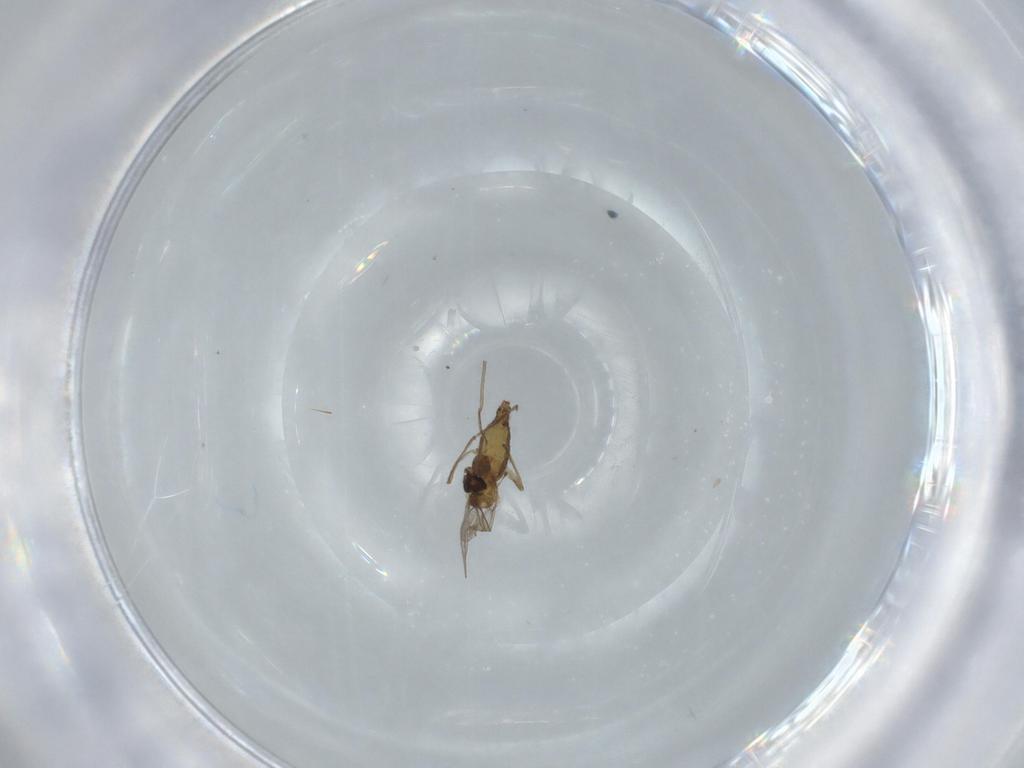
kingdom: Animalia
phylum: Arthropoda
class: Insecta
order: Diptera
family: Chironomidae
